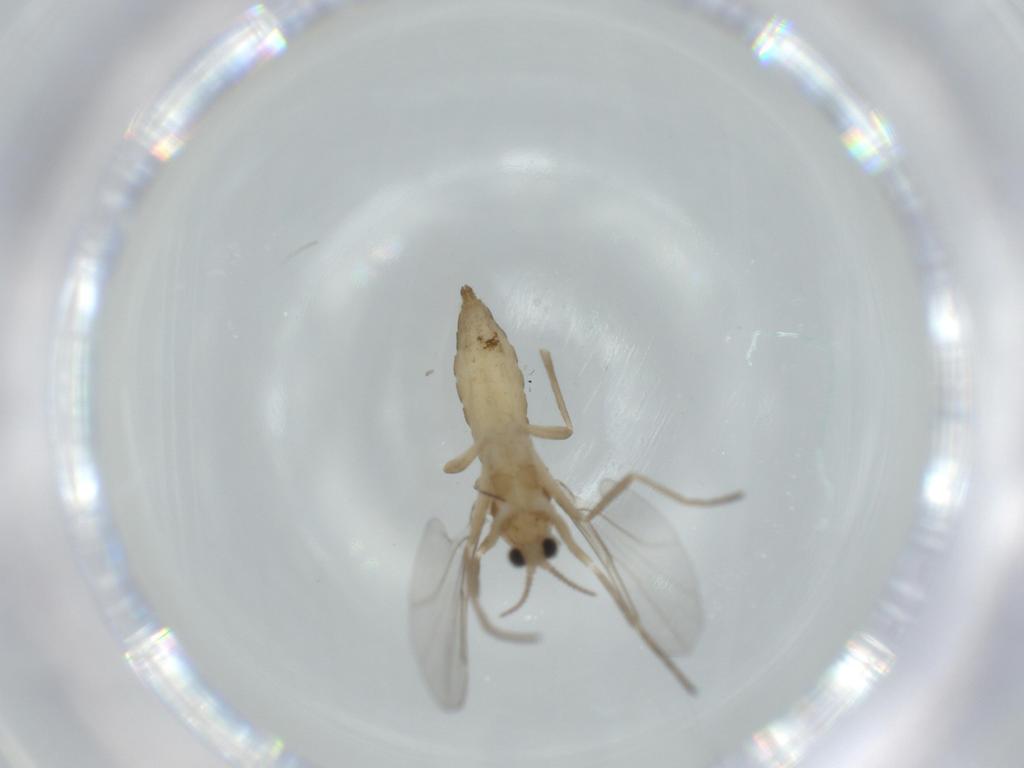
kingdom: Animalia
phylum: Arthropoda
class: Insecta
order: Diptera
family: Cecidomyiidae
